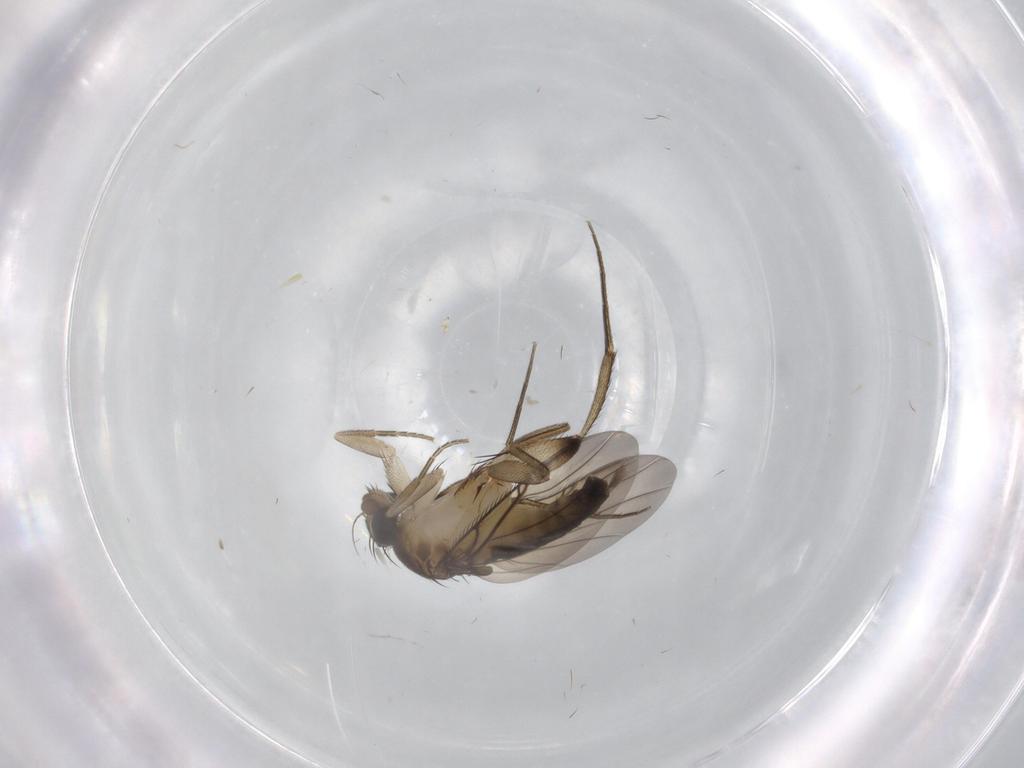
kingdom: Animalia
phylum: Arthropoda
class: Insecta
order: Diptera
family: Phoridae
